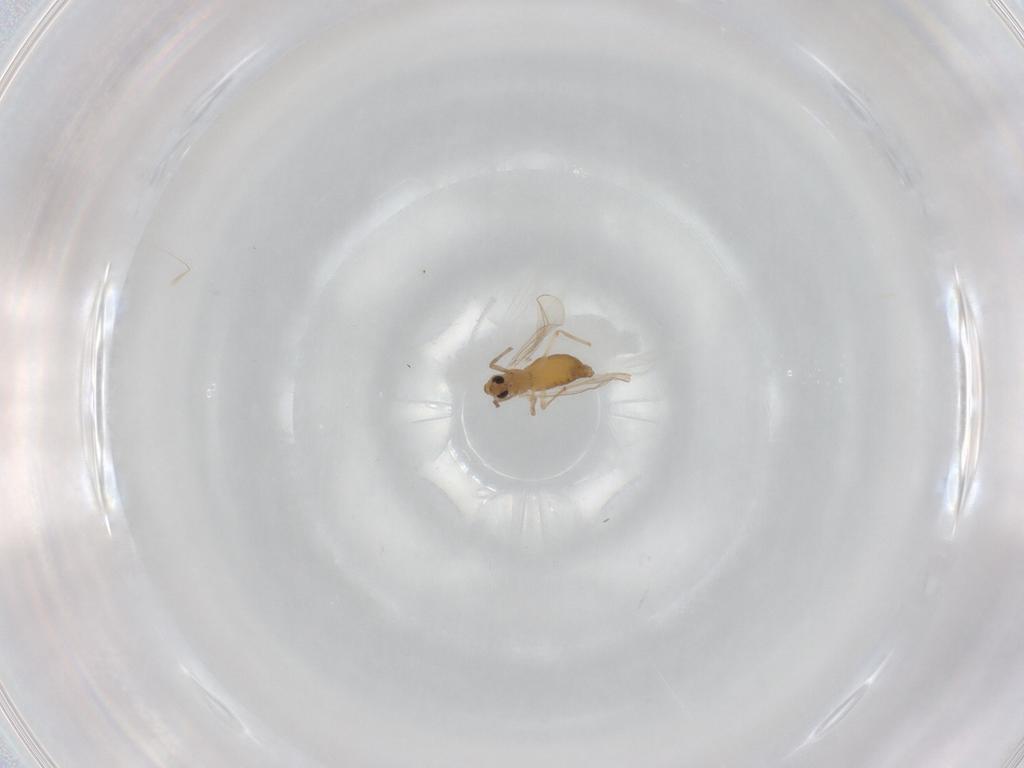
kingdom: Animalia
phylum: Arthropoda
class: Insecta
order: Diptera
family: Chironomidae
